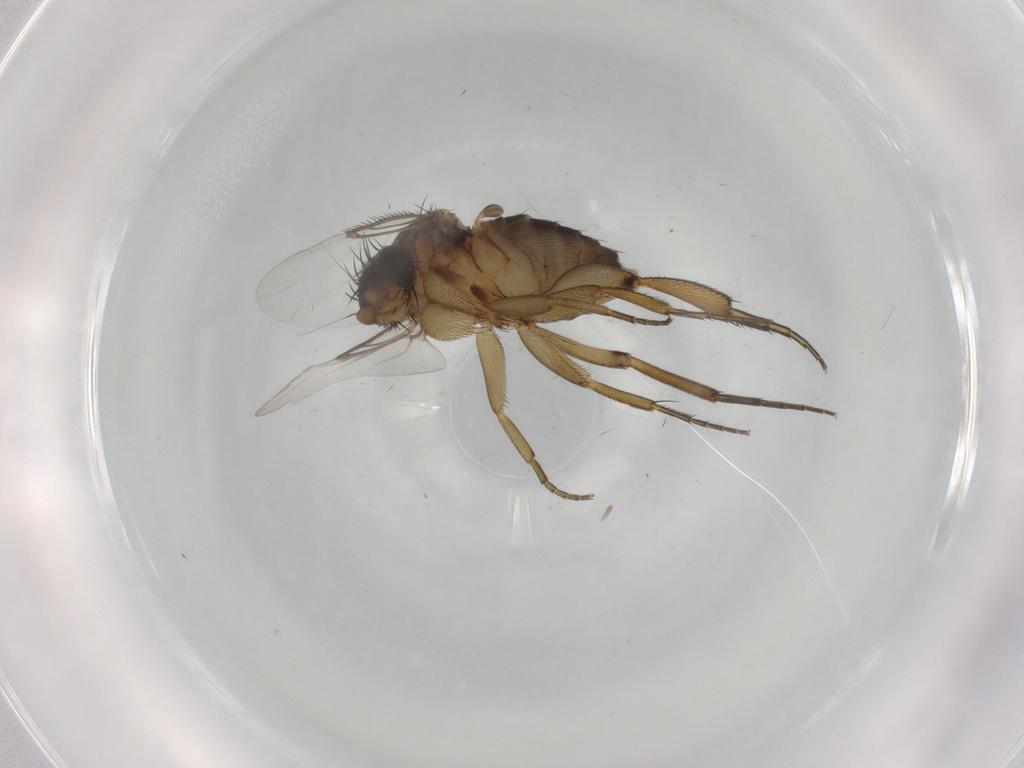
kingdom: Animalia
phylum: Arthropoda
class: Insecta
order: Diptera
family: Phoridae
